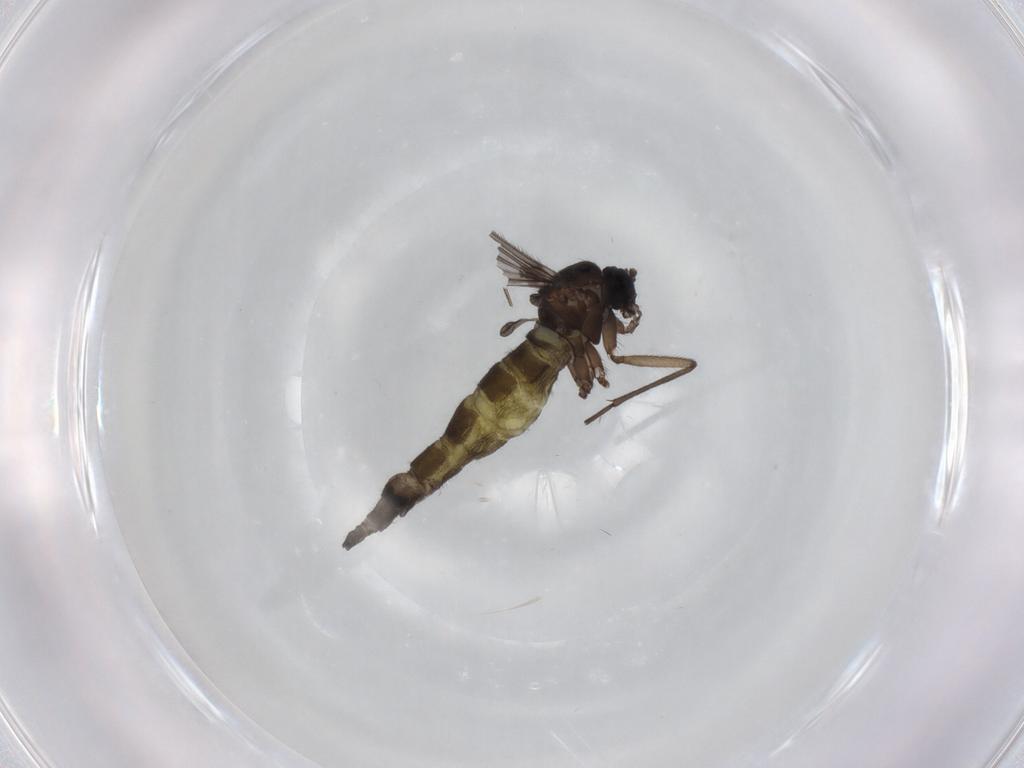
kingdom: Animalia
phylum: Arthropoda
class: Insecta
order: Diptera
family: Sciaridae
